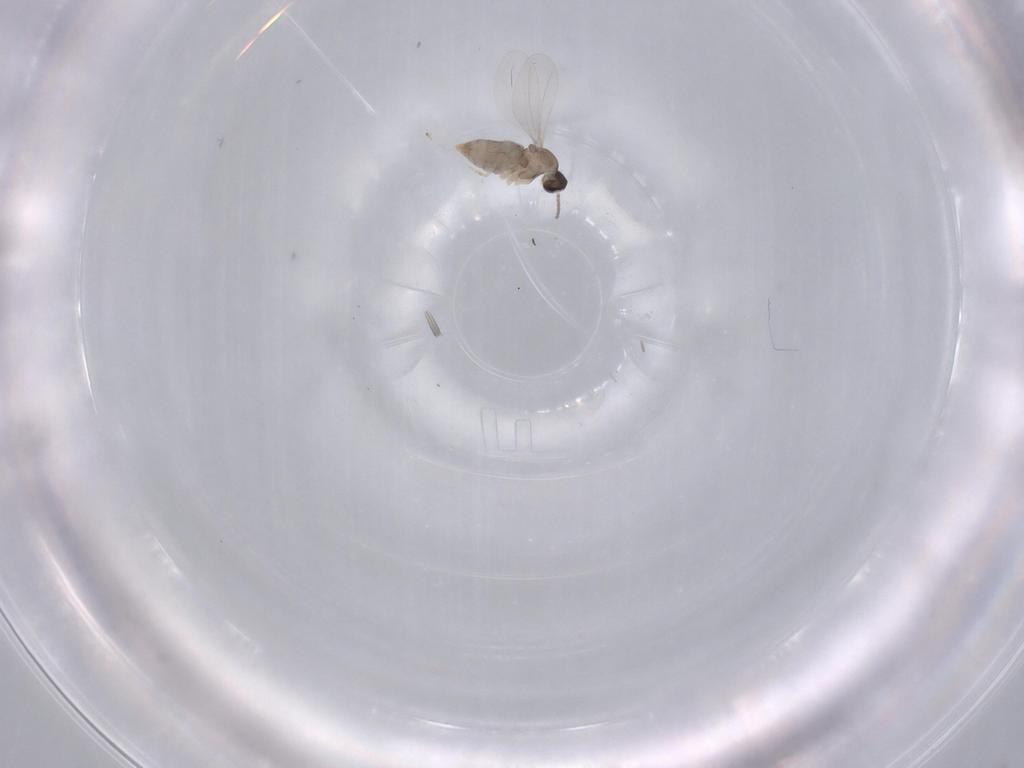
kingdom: Animalia
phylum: Arthropoda
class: Insecta
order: Diptera
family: Cecidomyiidae
